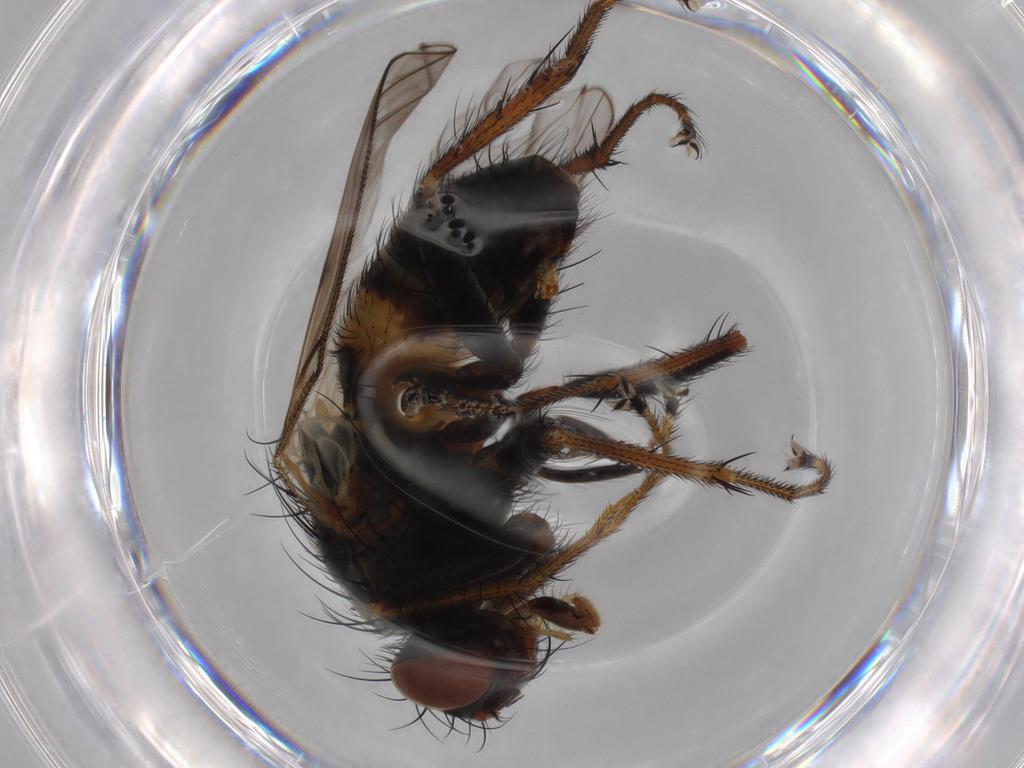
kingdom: Animalia
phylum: Arthropoda
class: Insecta
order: Diptera
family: Muscidae
